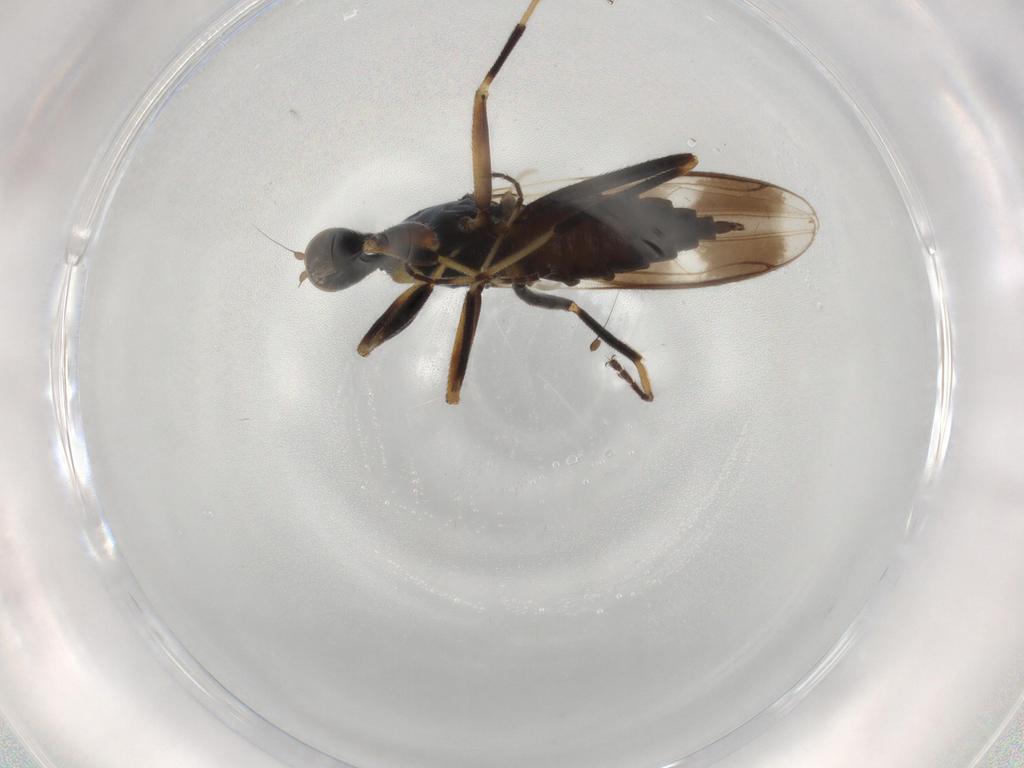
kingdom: Animalia
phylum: Arthropoda
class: Insecta
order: Diptera
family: Hybotidae
